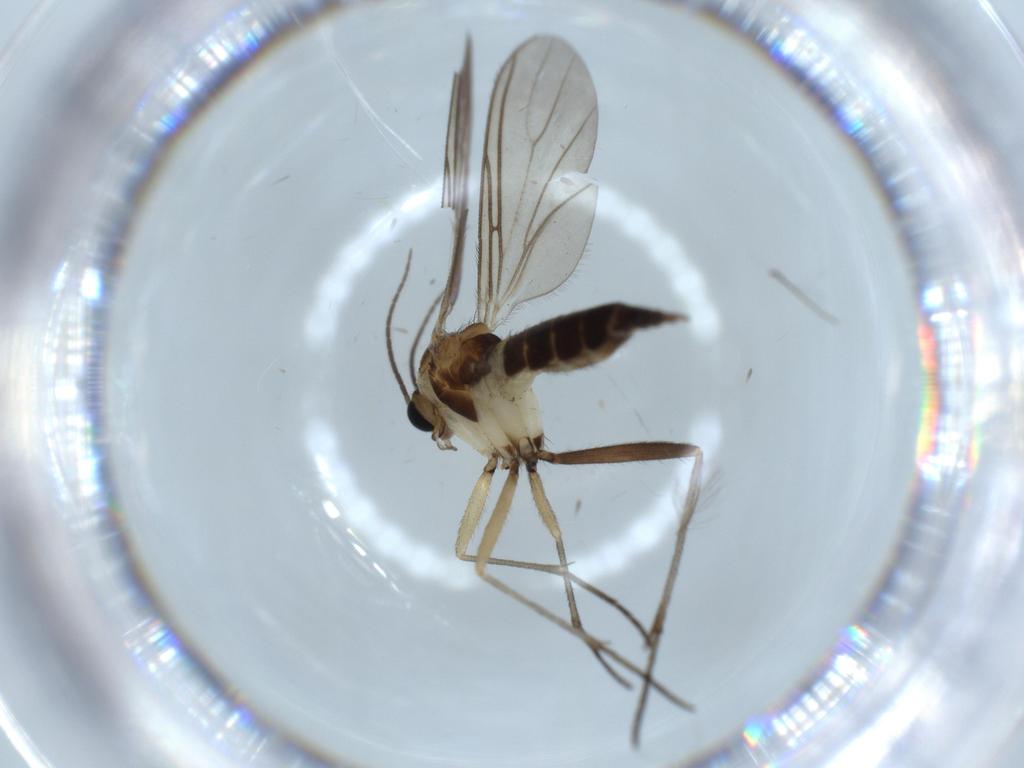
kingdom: Animalia
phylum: Arthropoda
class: Insecta
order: Diptera
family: Sciaridae
